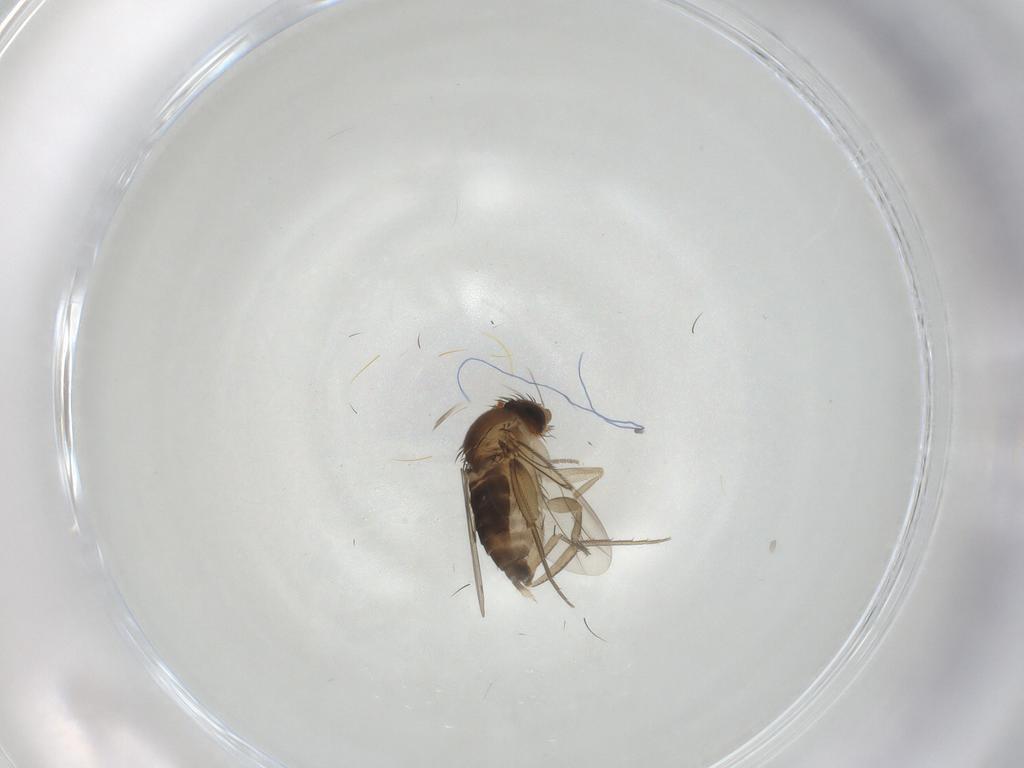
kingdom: Animalia
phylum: Arthropoda
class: Insecta
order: Diptera
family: Phoridae
